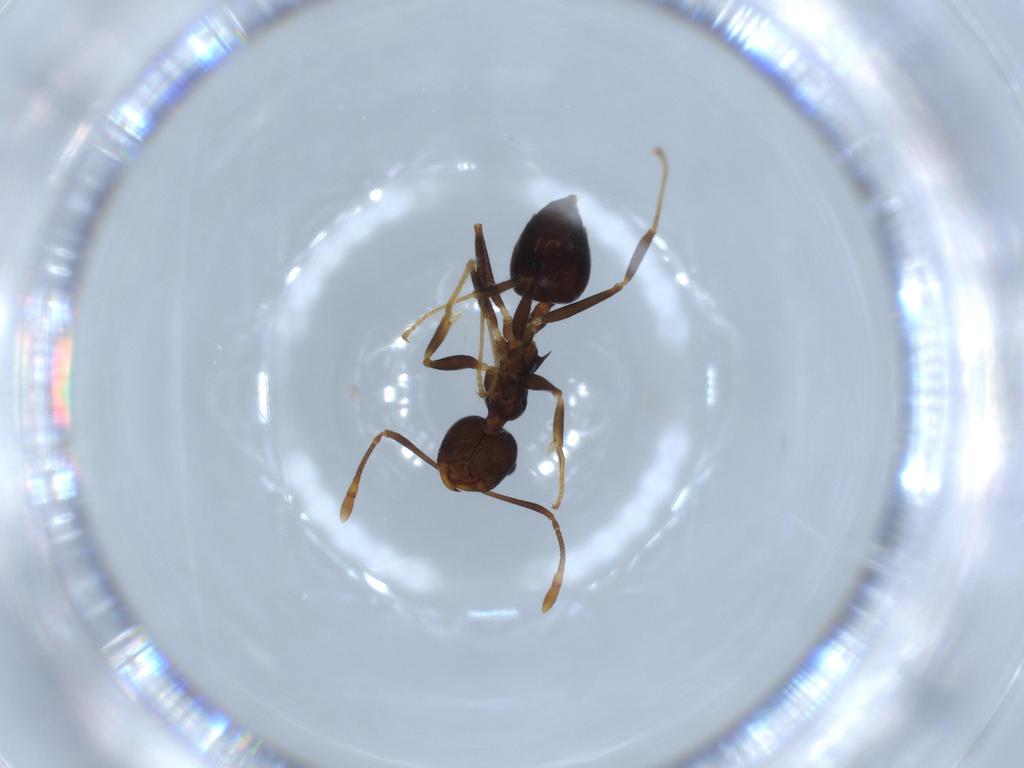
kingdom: Animalia
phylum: Arthropoda
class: Insecta
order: Hymenoptera
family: Formicidae
